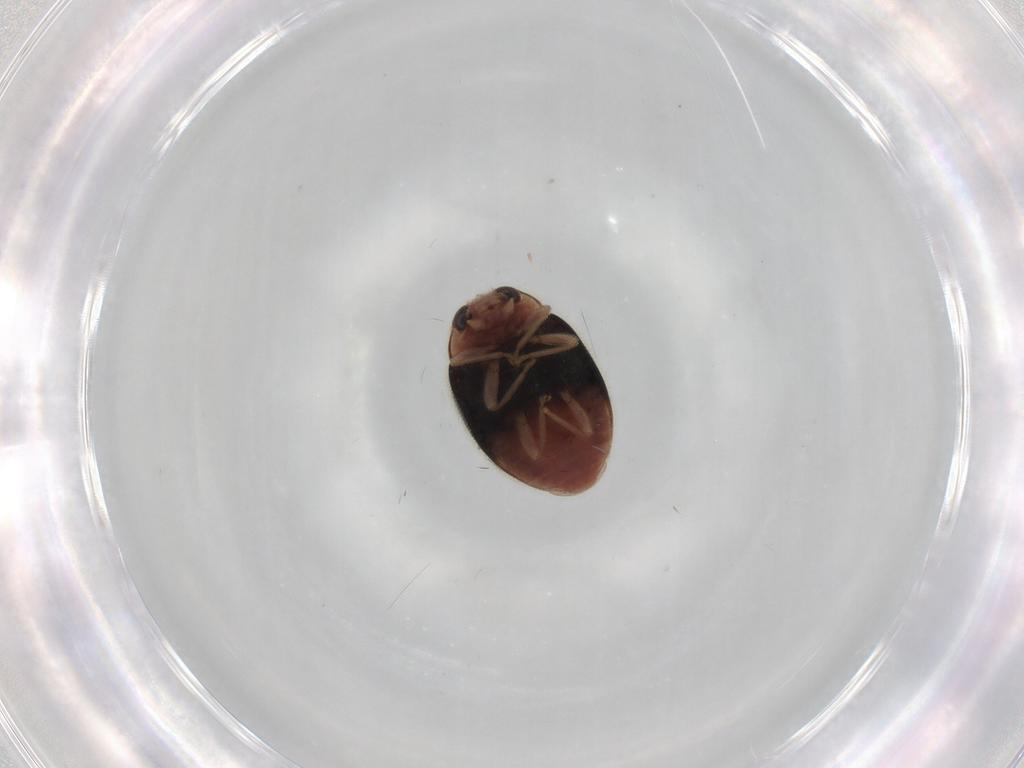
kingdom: Animalia
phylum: Arthropoda
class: Insecta
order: Coleoptera
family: Coccinellidae
